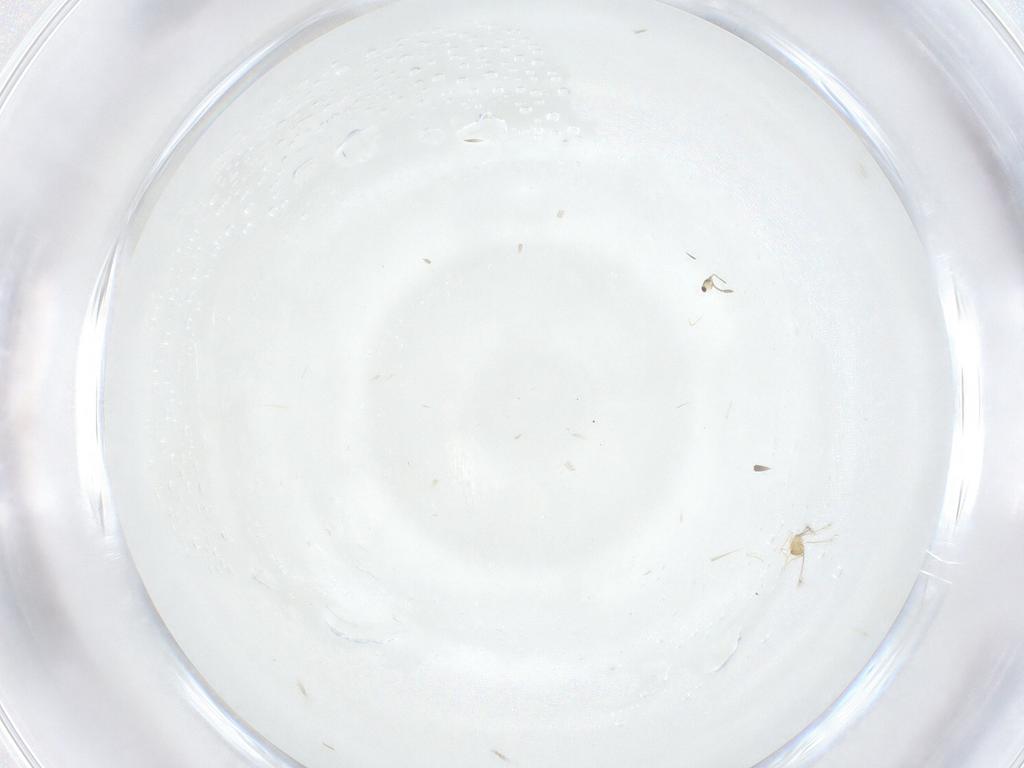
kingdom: Animalia
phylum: Arthropoda
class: Insecta
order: Hymenoptera
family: Mymaridae
